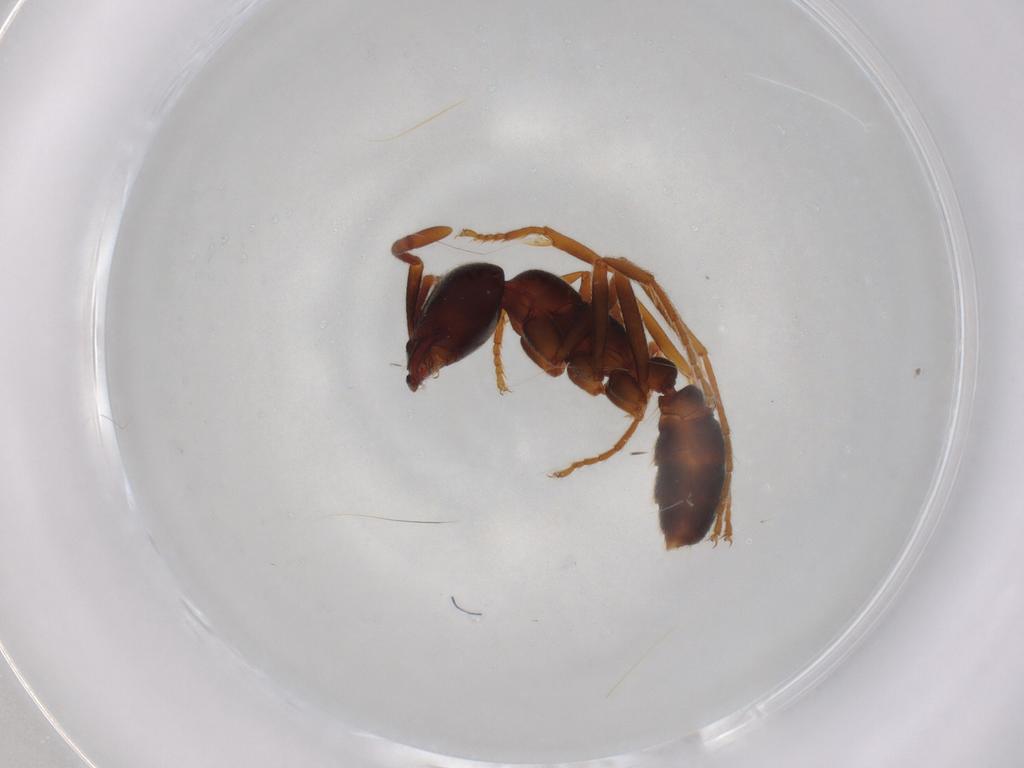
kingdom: Animalia
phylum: Arthropoda
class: Insecta
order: Hymenoptera
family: Formicidae
